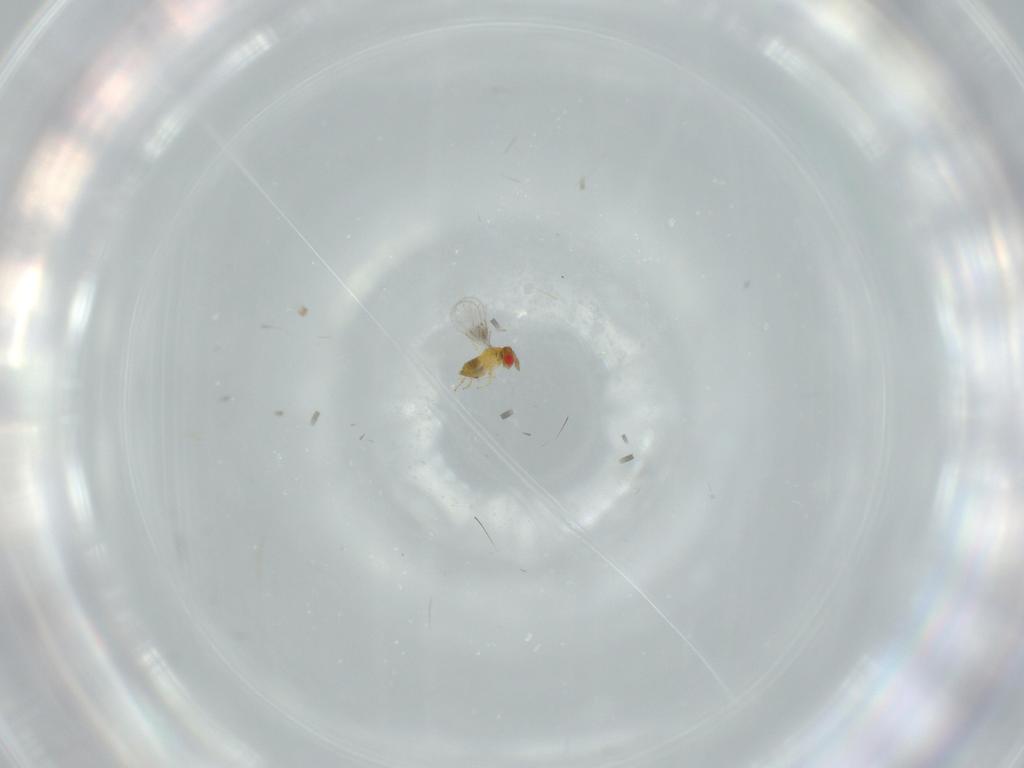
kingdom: Animalia
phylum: Arthropoda
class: Insecta
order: Hymenoptera
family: Trichogrammatidae
